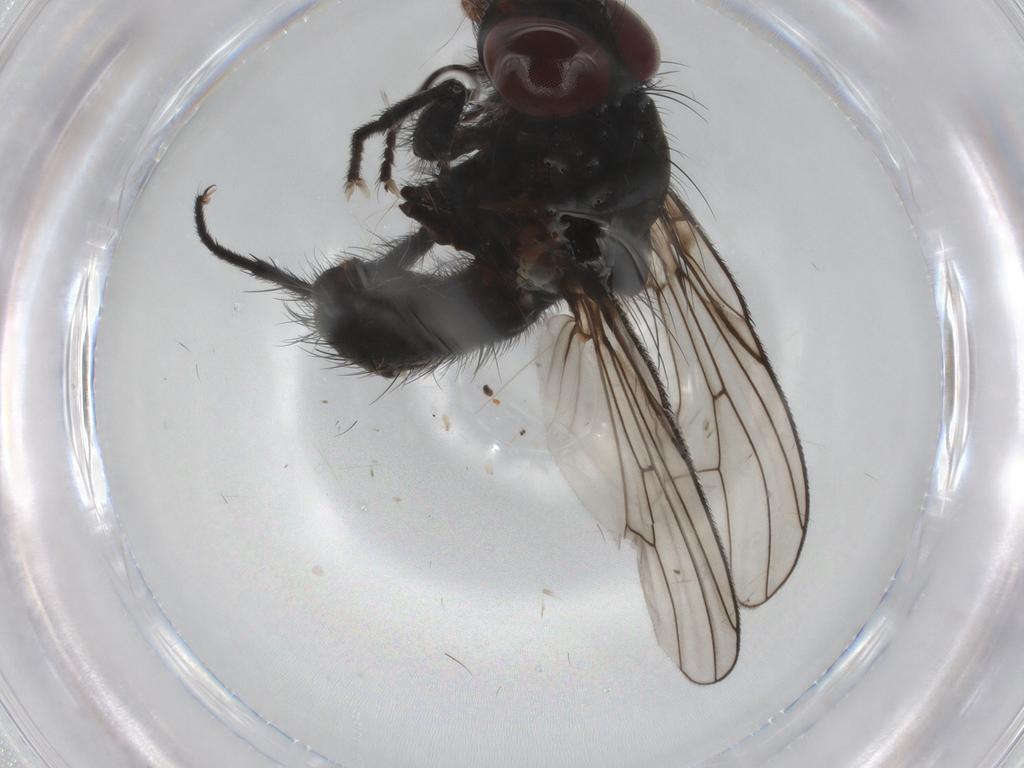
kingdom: Animalia
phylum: Arthropoda
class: Insecta
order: Diptera
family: Anthomyiidae
